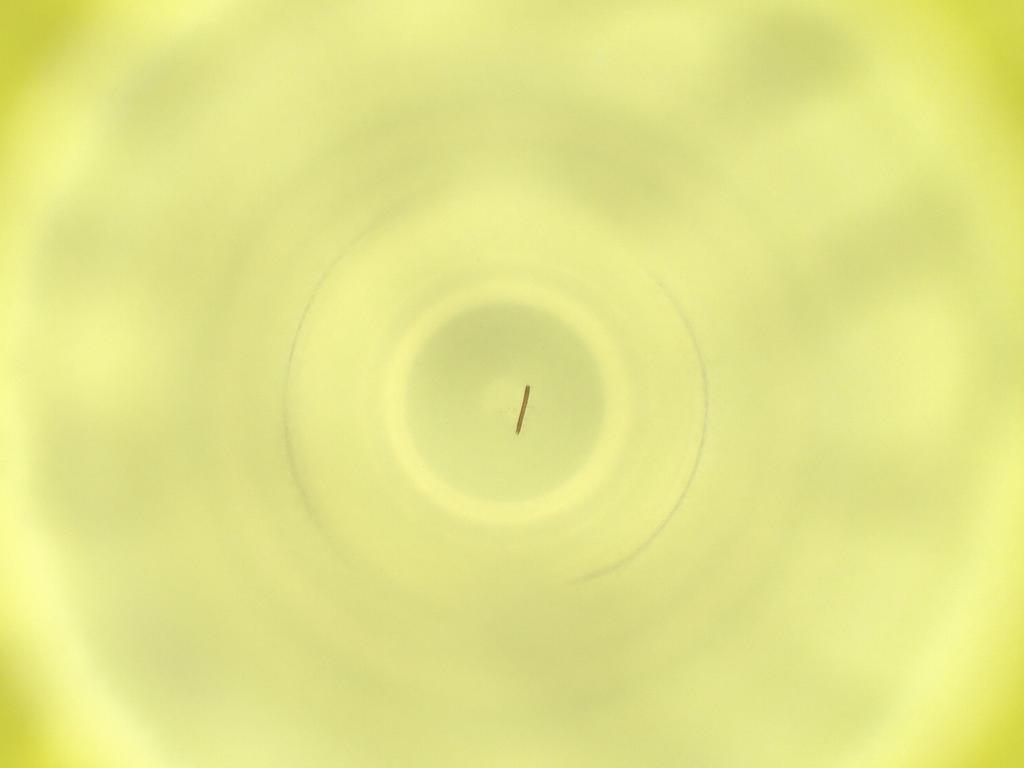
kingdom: Animalia
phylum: Arthropoda
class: Insecta
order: Diptera
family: Cecidomyiidae
